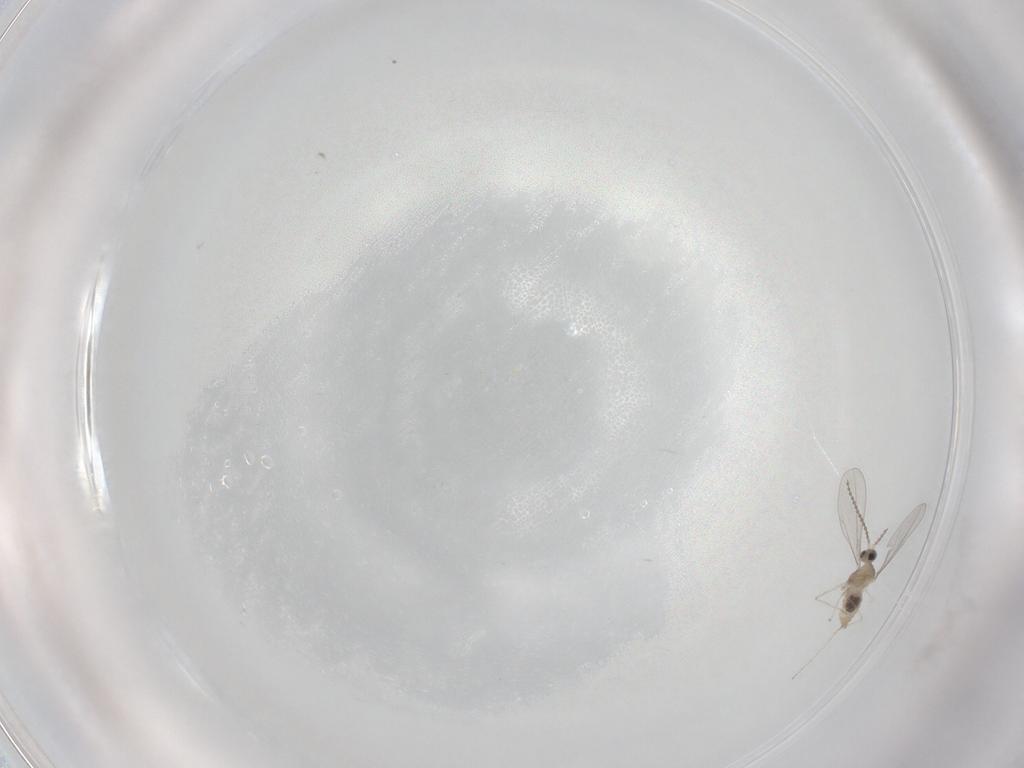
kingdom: Animalia
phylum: Arthropoda
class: Insecta
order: Diptera
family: Cecidomyiidae
